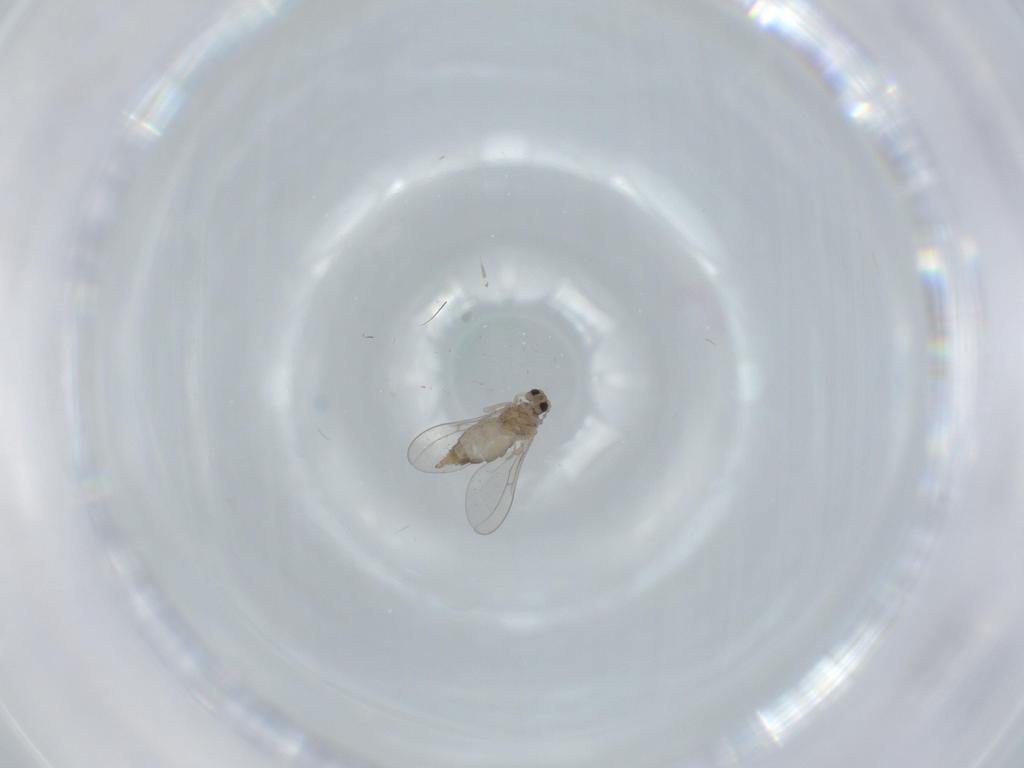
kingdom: Animalia
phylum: Arthropoda
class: Insecta
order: Diptera
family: Cecidomyiidae
